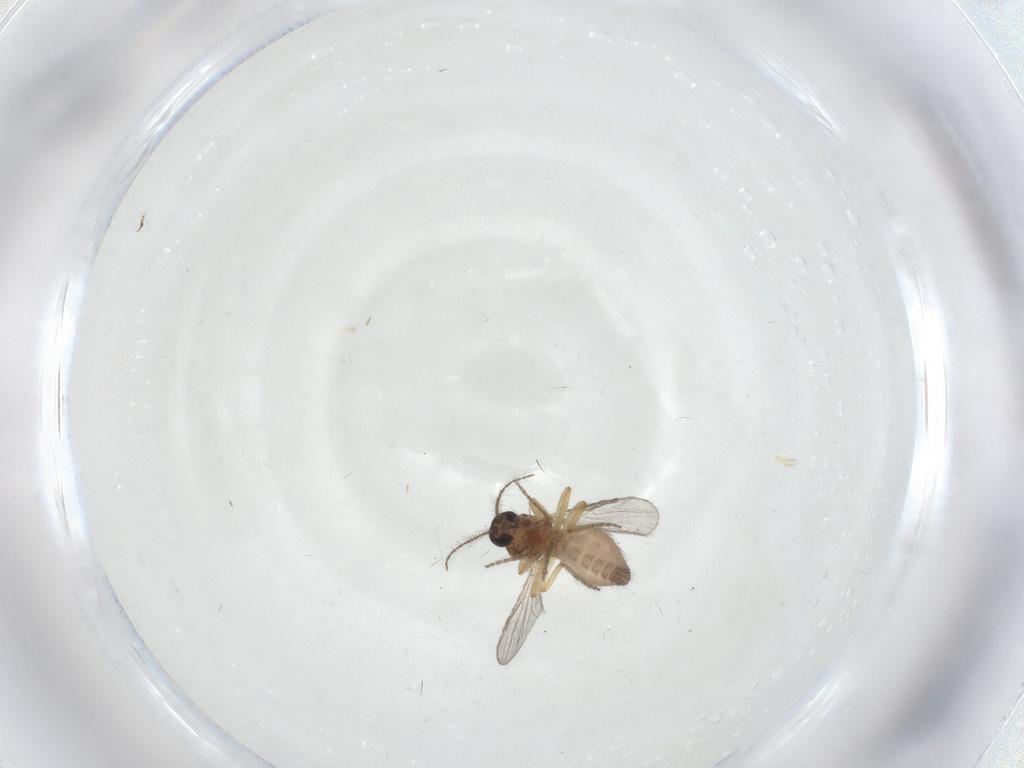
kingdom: Animalia
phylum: Arthropoda
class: Insecta
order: Diptera
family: Ceratopogonidae
